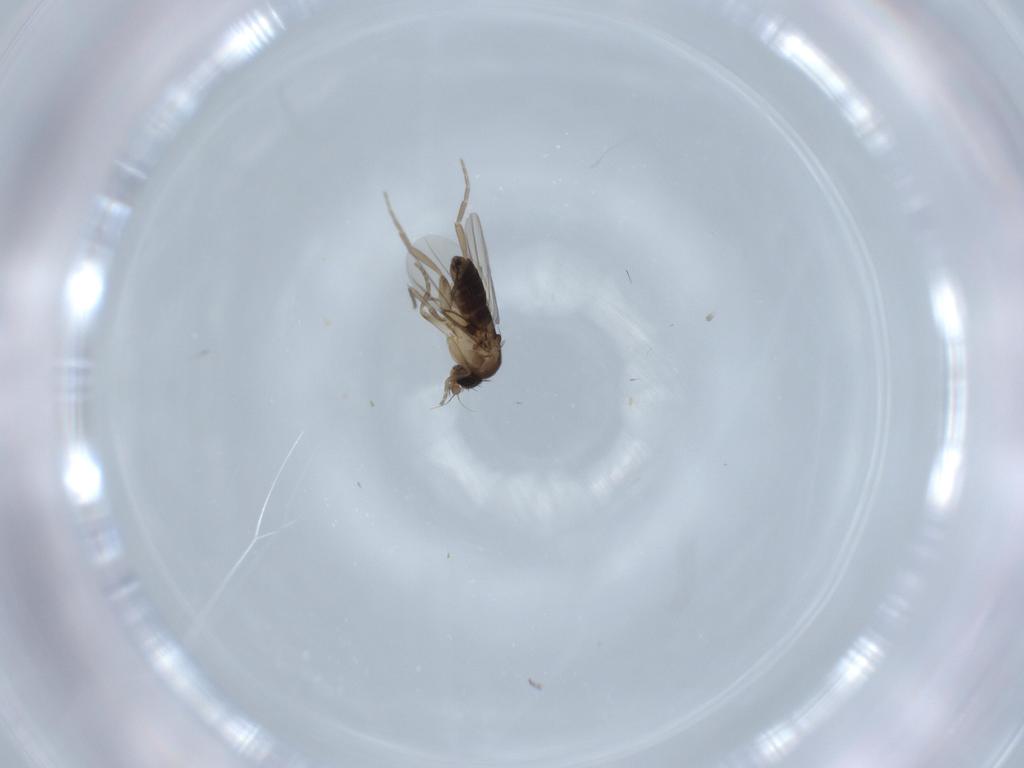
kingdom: Animalia
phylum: Arthropoda
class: Insecta
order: Diptera
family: Phoridae
